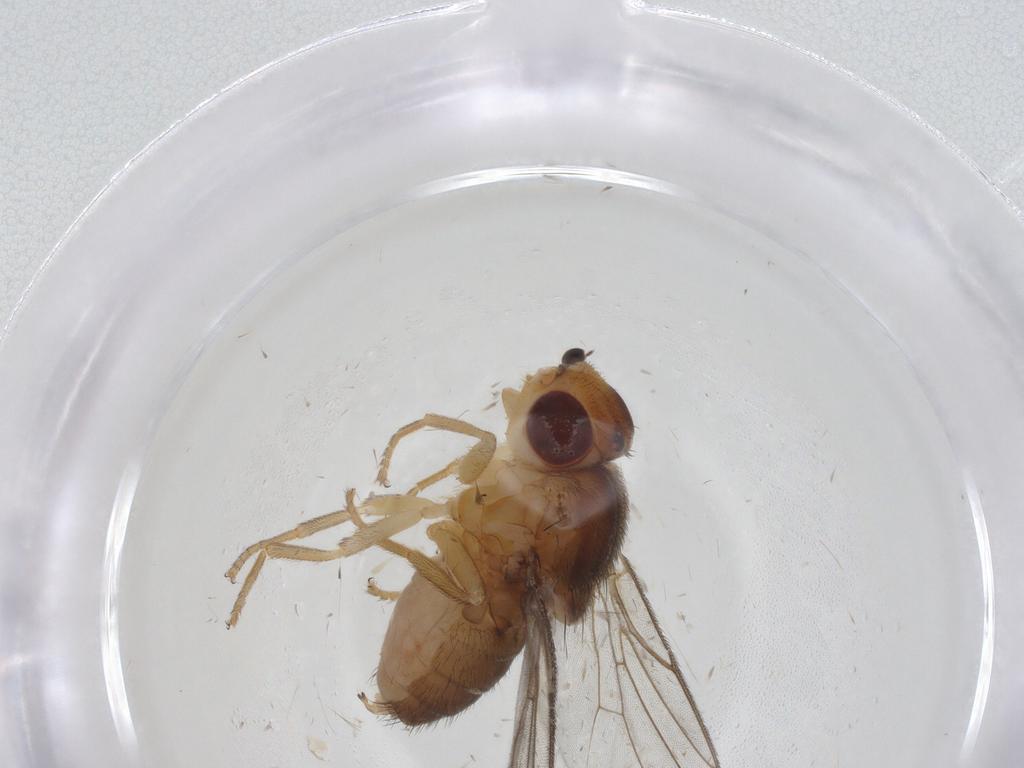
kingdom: Animalia
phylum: Arthropoda
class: Insecta
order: Diptera
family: Chloropidae
